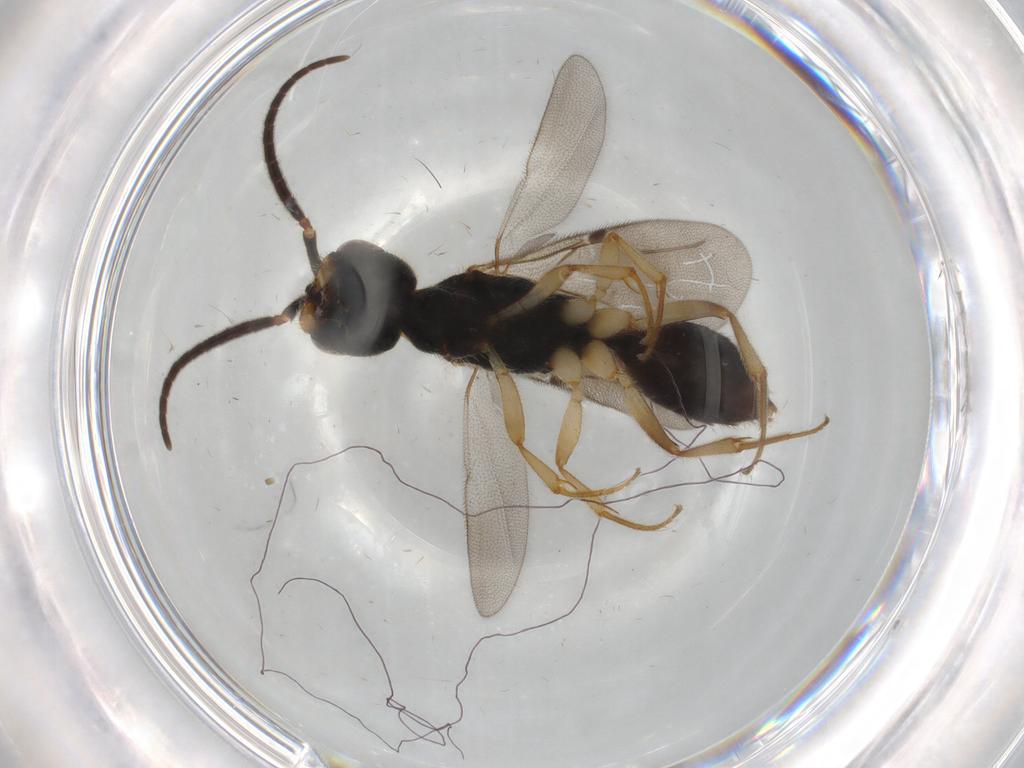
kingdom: Animalia
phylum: Arthropoda
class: Insecta
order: Hymenoptera
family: Bethylidae
